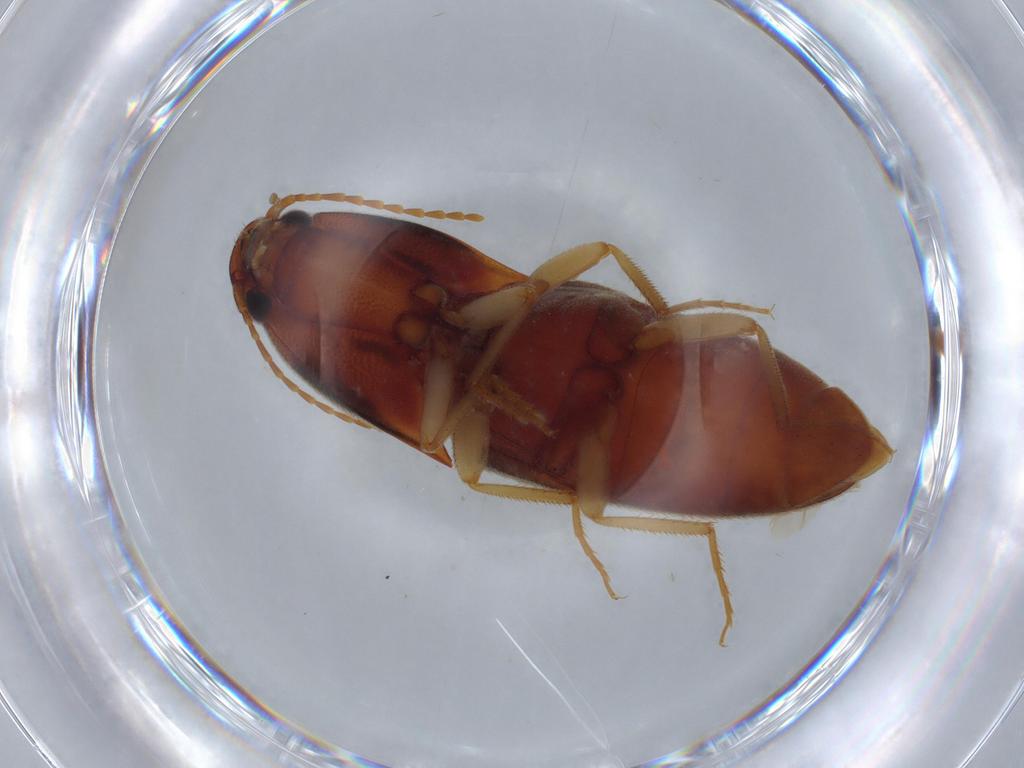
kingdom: Animalia
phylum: Arthropoda
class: Insecta
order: Coleoptera
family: Elateridae
